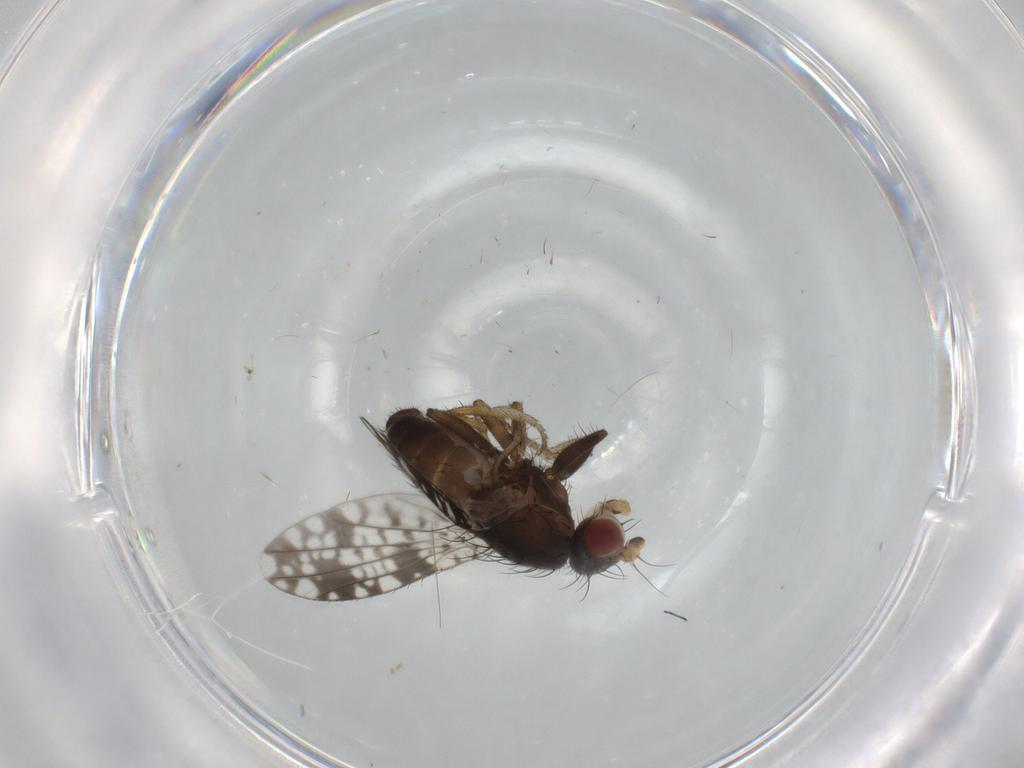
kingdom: Animalia
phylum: Arthropoda
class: Insecta
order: Diptera
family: Tephritidae
